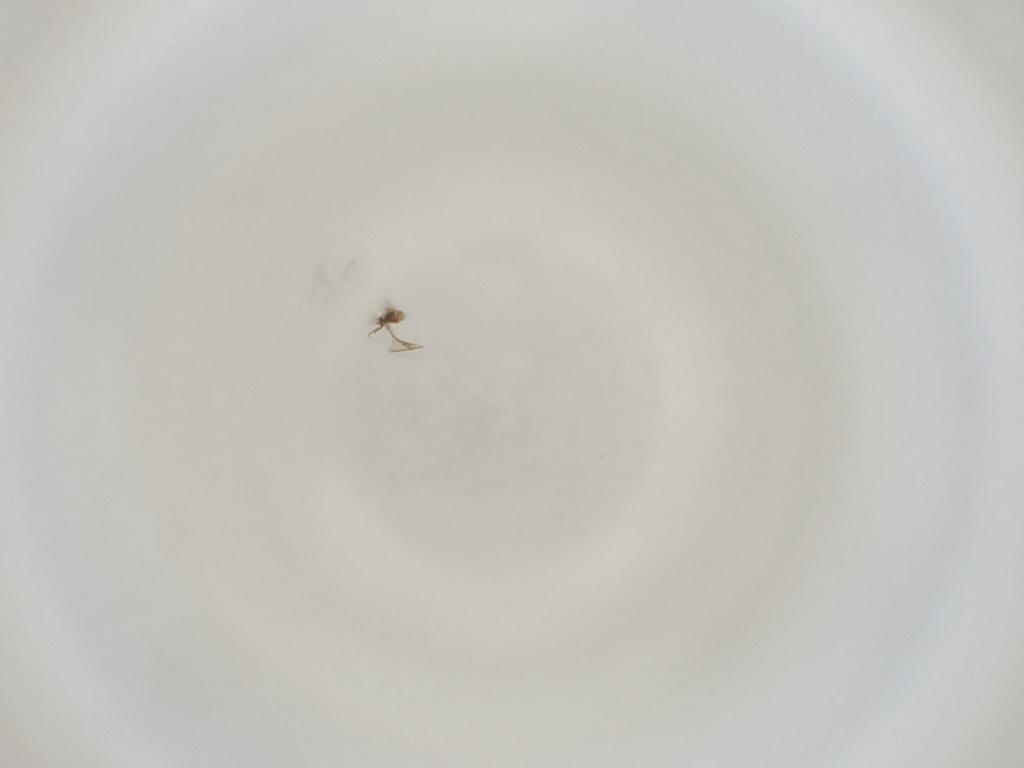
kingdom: Animalia
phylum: Arthropoda
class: Insecta
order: Diptera
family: Cecidomyiidae
